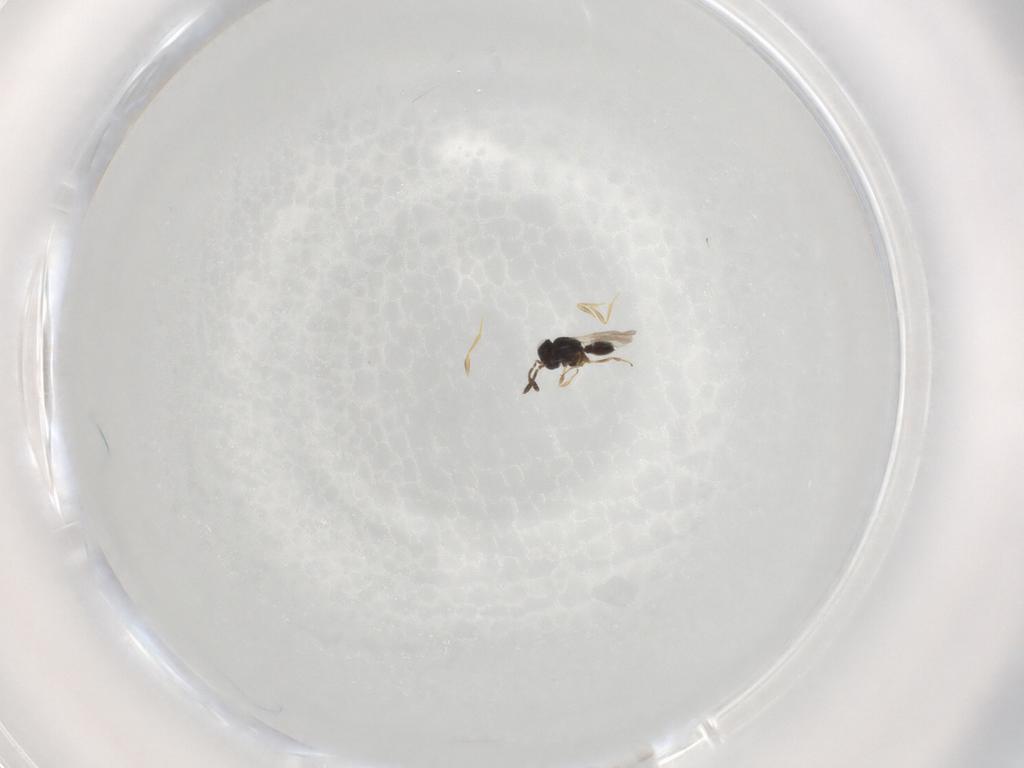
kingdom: Animalia
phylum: Arthropoda
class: Insecta
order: Hymenoptera
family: Scelionidae
